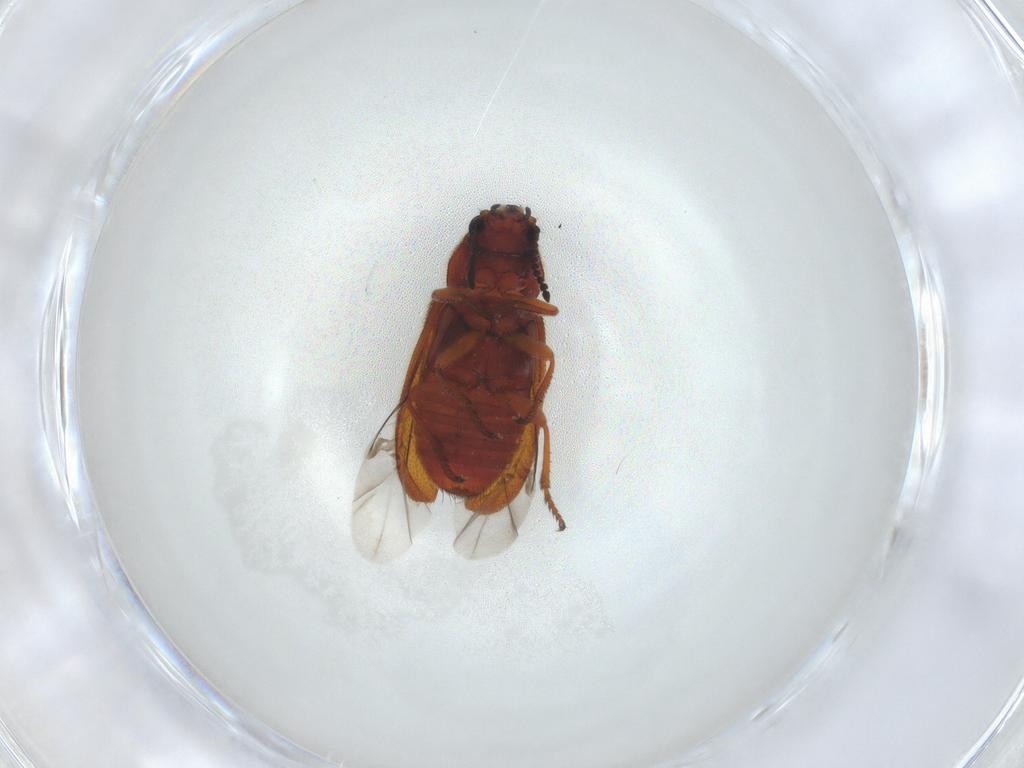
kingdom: Animalia
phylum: Arthropoda
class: Insecta
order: Coleoptera
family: Melyridae
